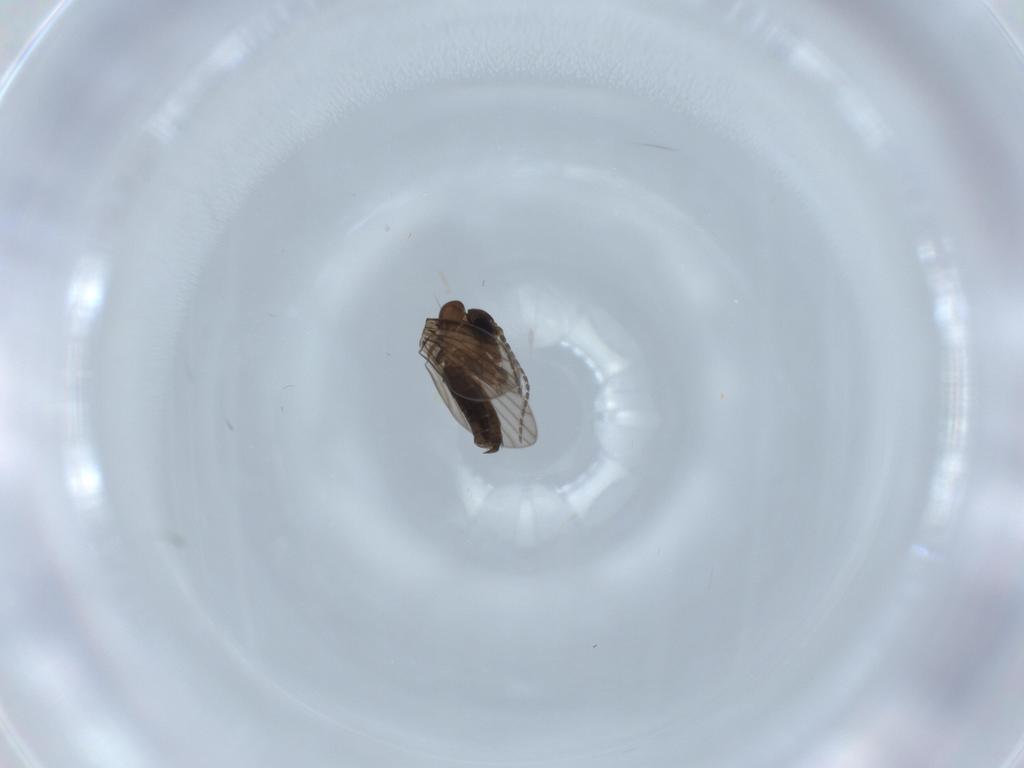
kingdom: Animalia
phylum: Arthropoda
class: Insecta
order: Diptera
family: Psychodidae
